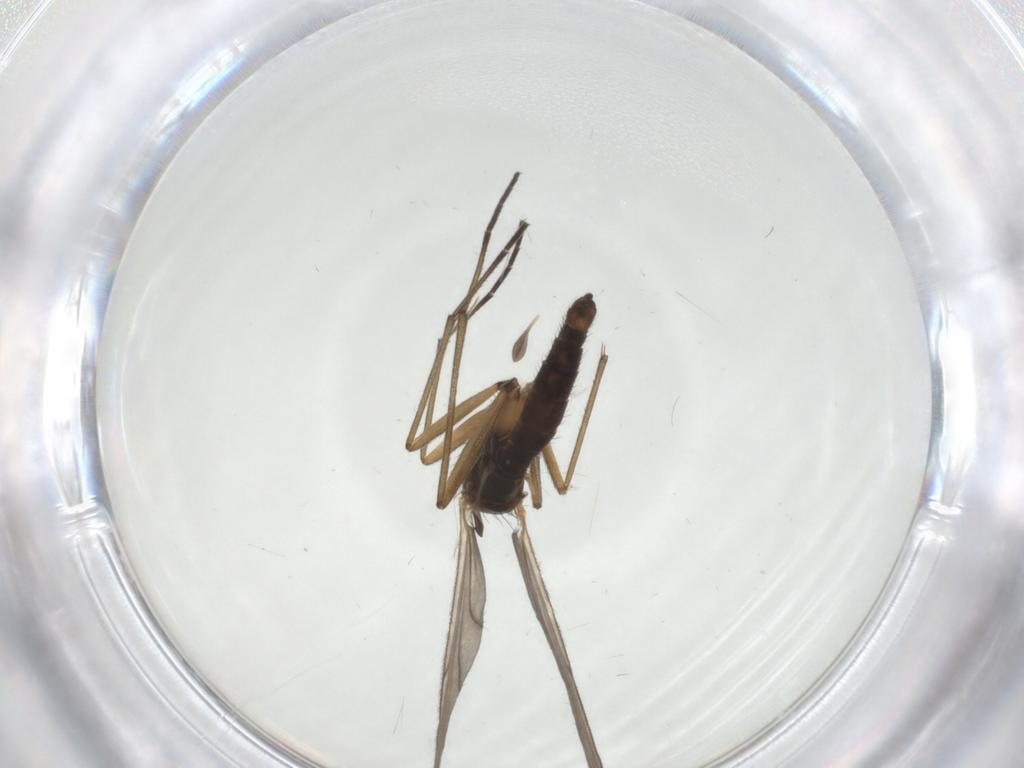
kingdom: Animalia
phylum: Arthropoda
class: Insecta
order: Diptera
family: Sciaridae
